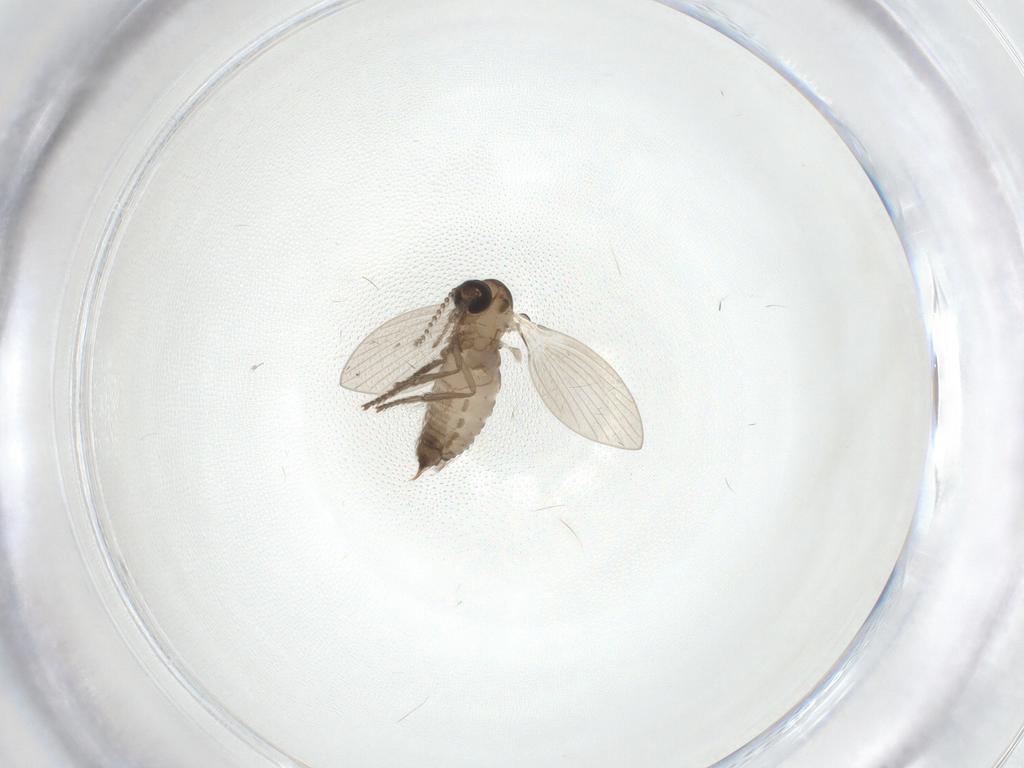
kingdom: Animalia
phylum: Arthropoda
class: Insecta
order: Diptera
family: Psychodidae
